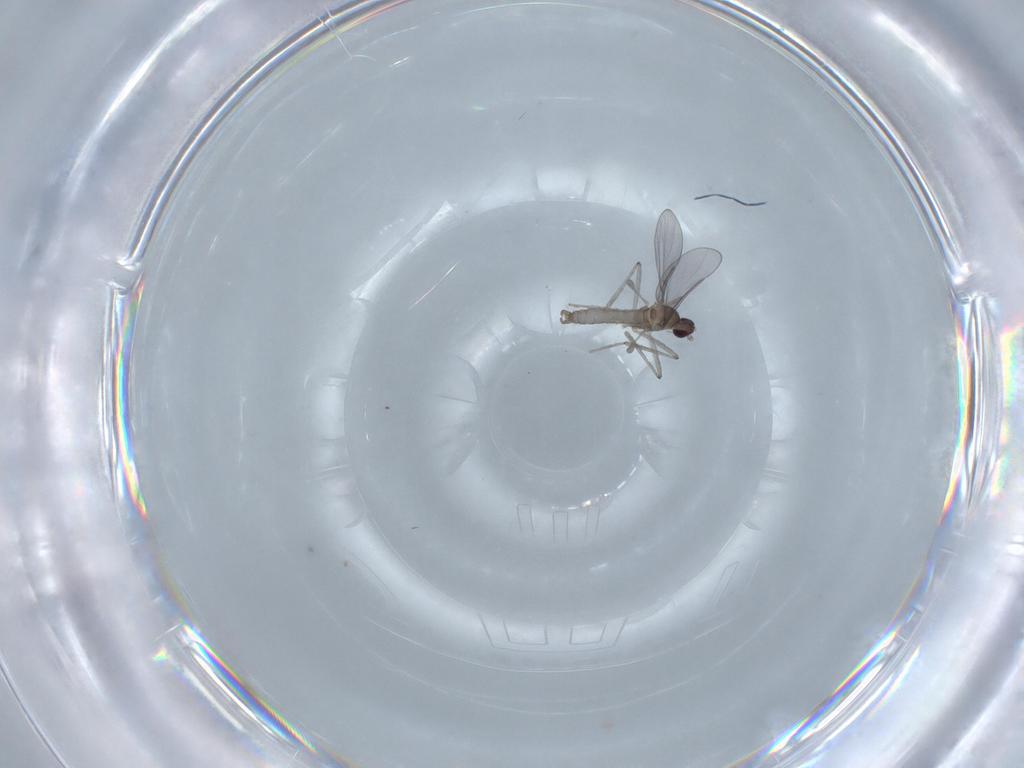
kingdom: Animalia
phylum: Arthropoda
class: Insecta
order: Diptera
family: Cecidomyiidae
